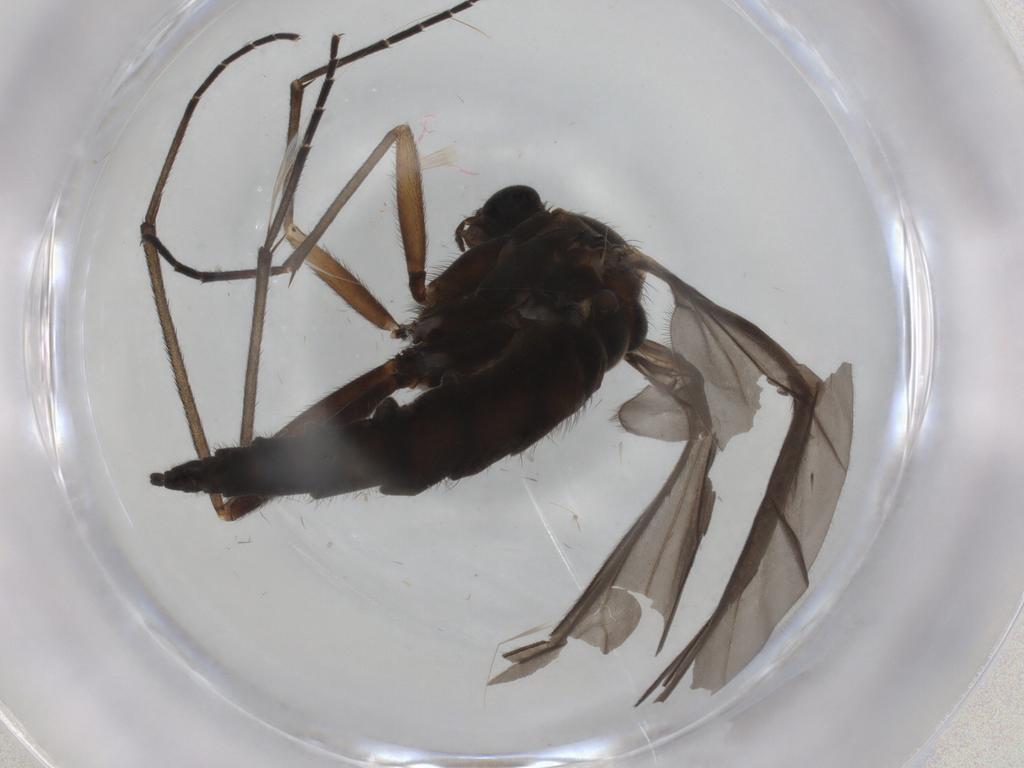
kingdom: Animalia
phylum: Arthropoda
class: Insecta
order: Diptera
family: Sciaridae
